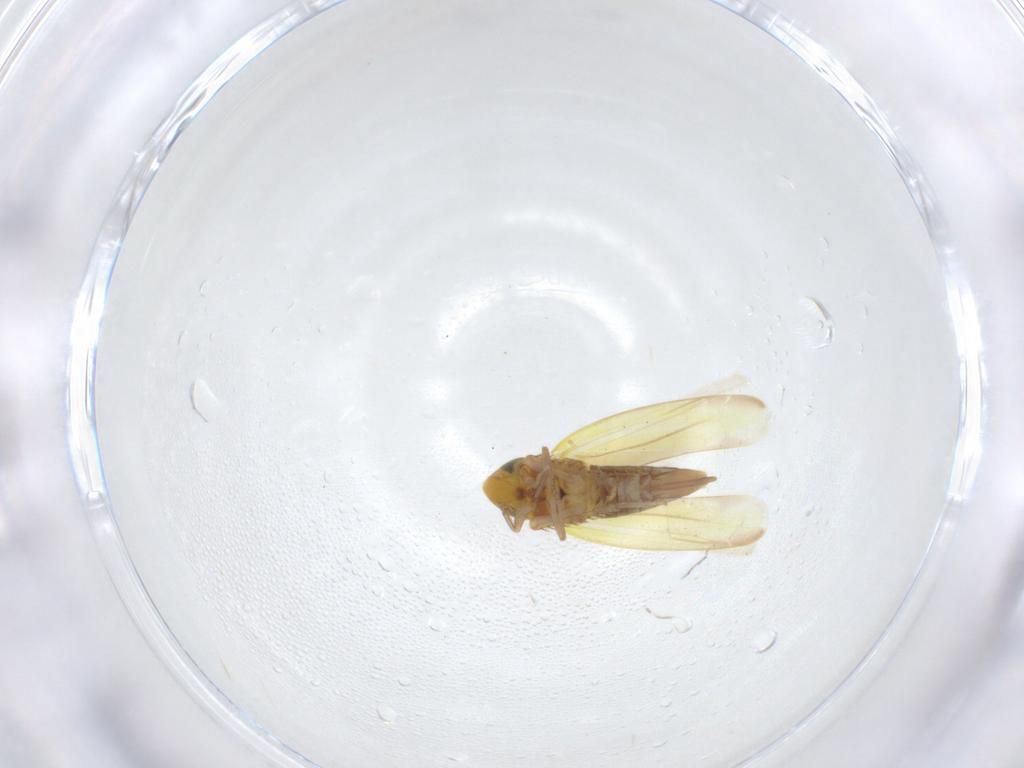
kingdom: Animalia
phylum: Arthropoda
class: Insecta
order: Hemiptera
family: Cicadellidae
